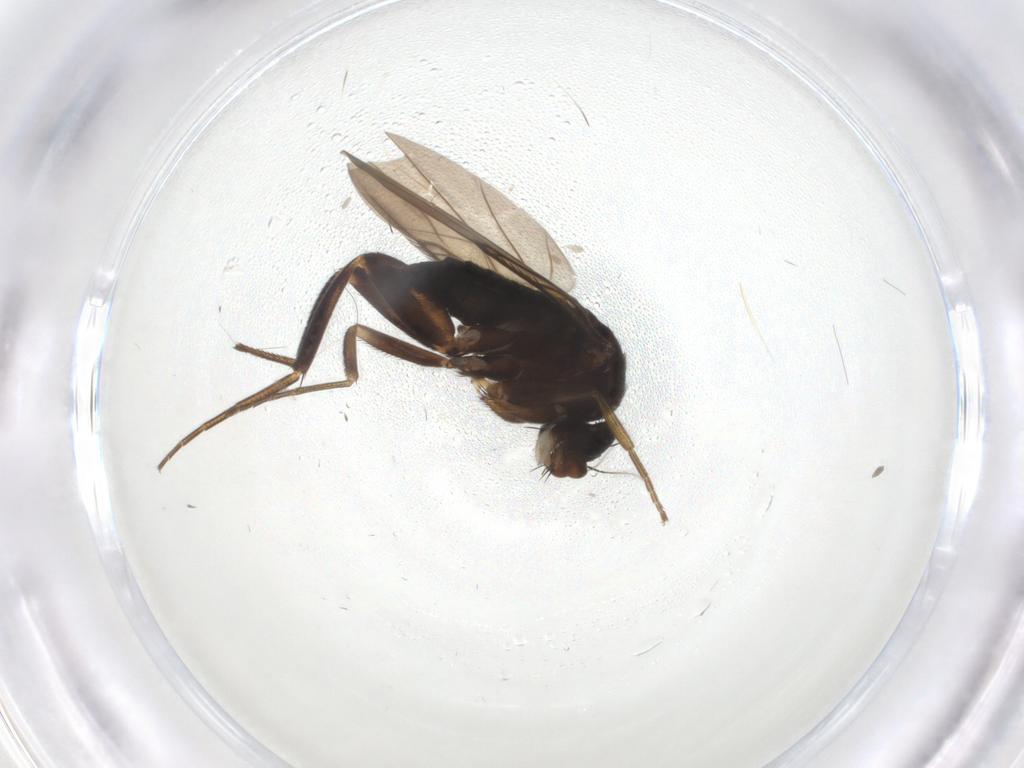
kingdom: Animalia
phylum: Arthropoda
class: Insecta
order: Diptera
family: Phoridae
